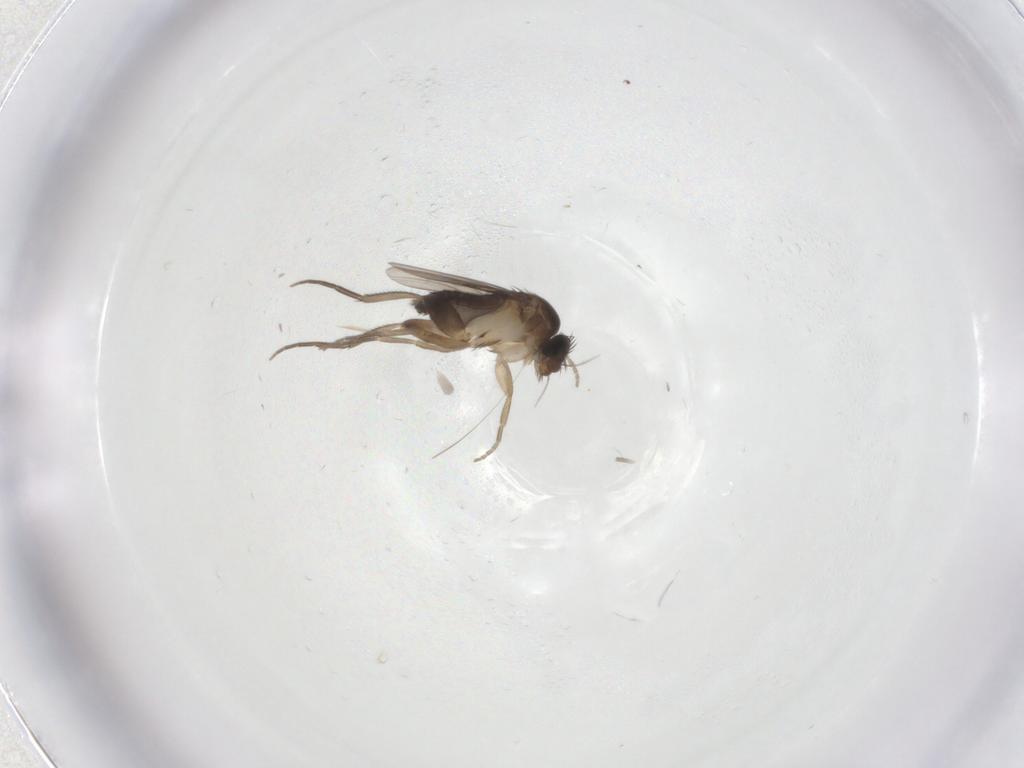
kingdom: Animalia
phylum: Arthropoda
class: Insecta
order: Diptera
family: Phoridae
